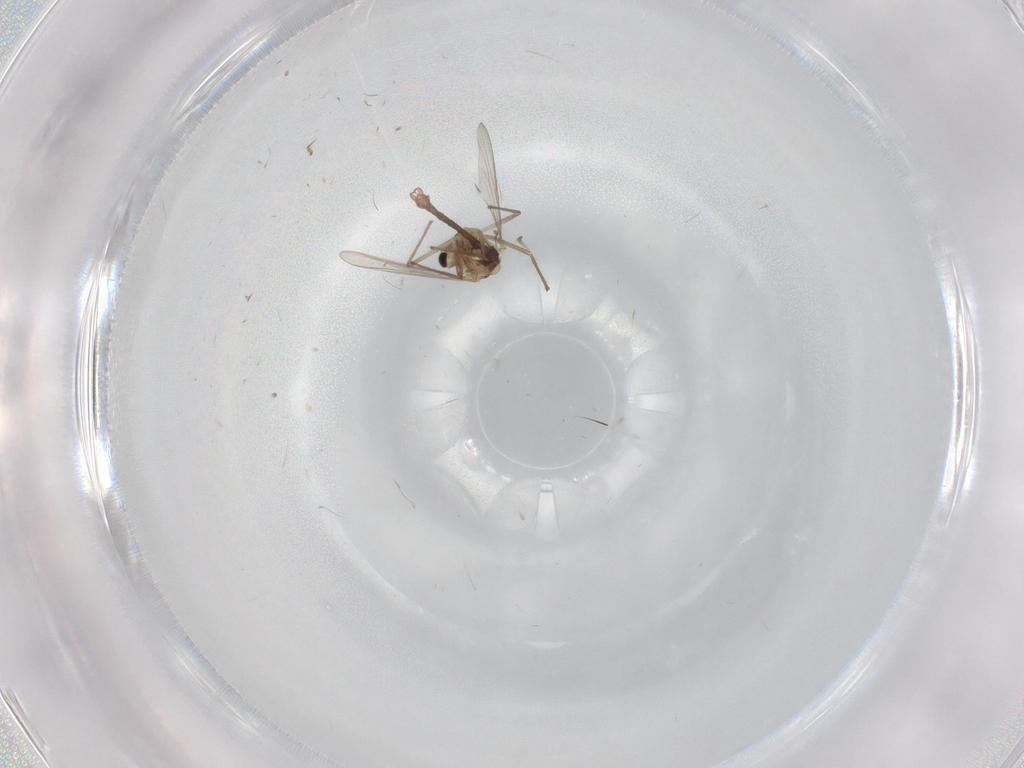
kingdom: Animalia
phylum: Arthropoda
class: Insecta
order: Diptera
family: Chironomidae
